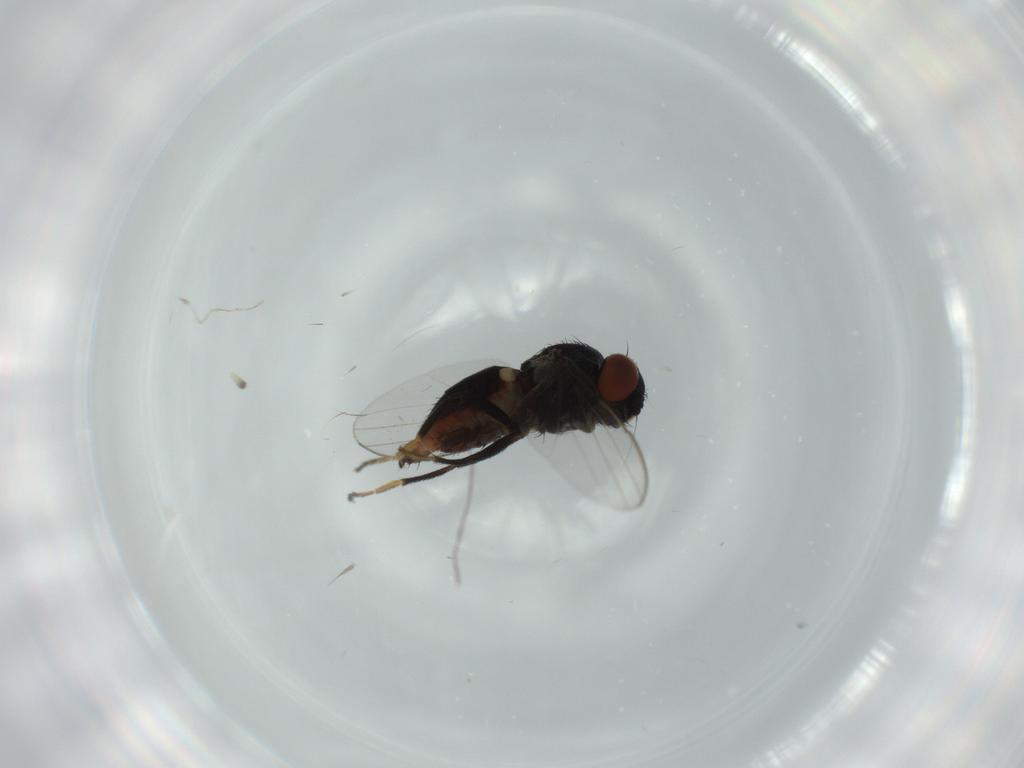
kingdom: Animalia
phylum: Arthropoda
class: Insecta
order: Diptera
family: Milichiidae
